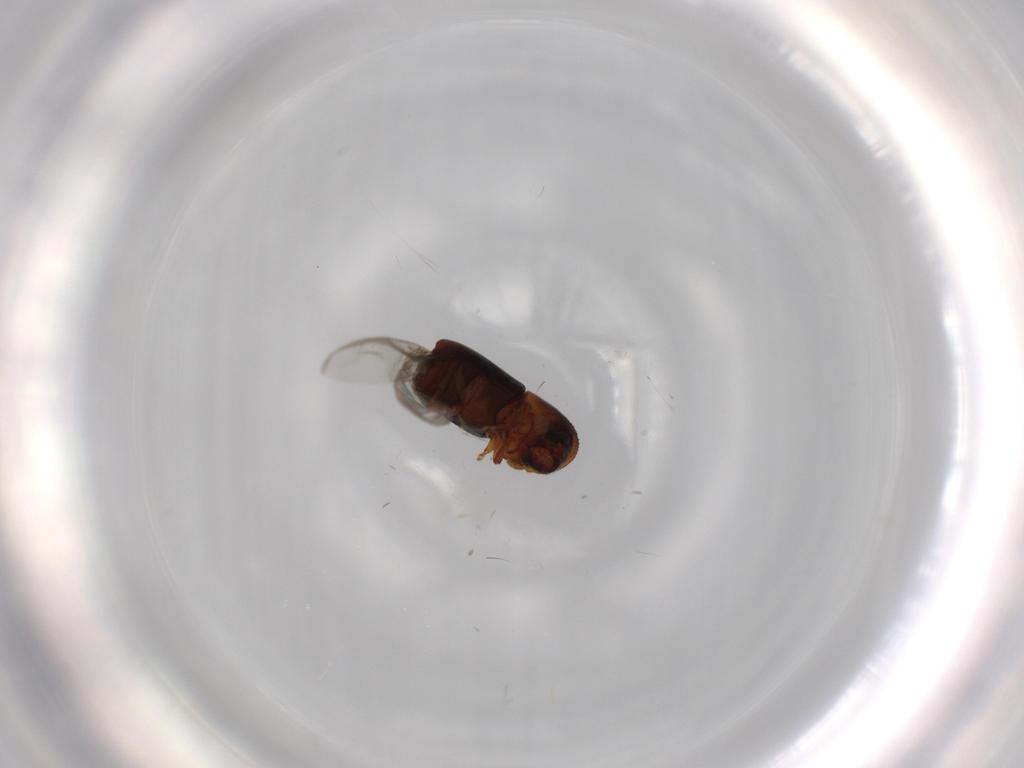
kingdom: Animalia
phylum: Arthropoda
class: Insecta
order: Coleoptera
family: Curculionidae
